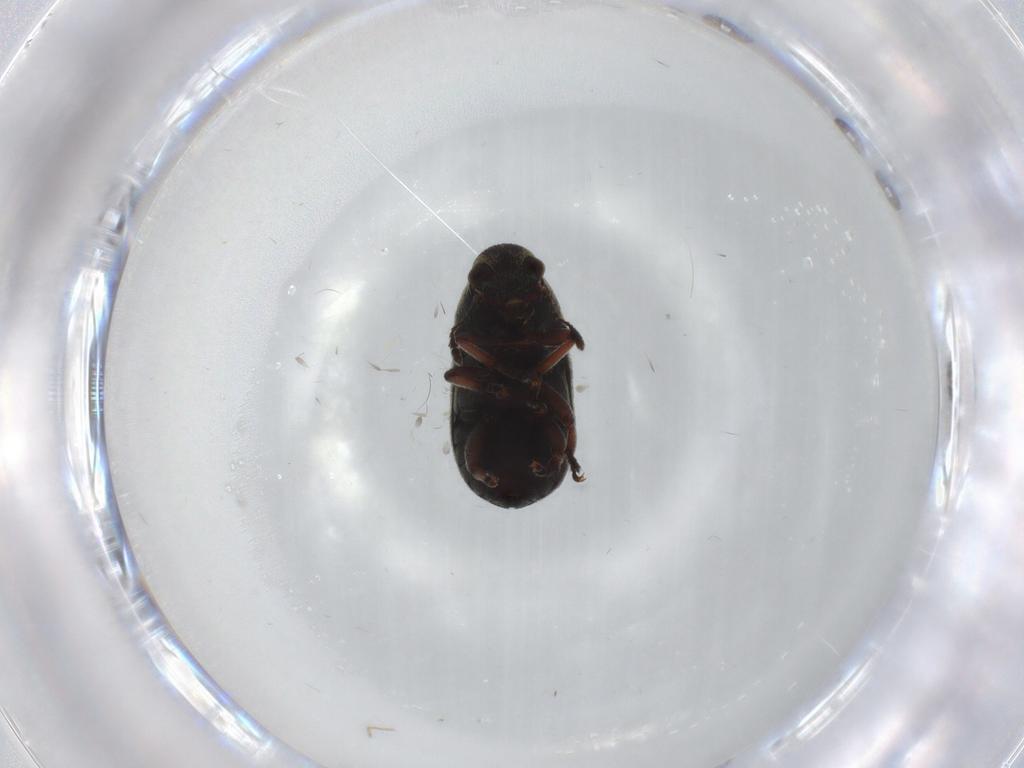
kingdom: Animalia
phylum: Arthropoda
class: Insecta
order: Coleoptera
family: Anthribidae
